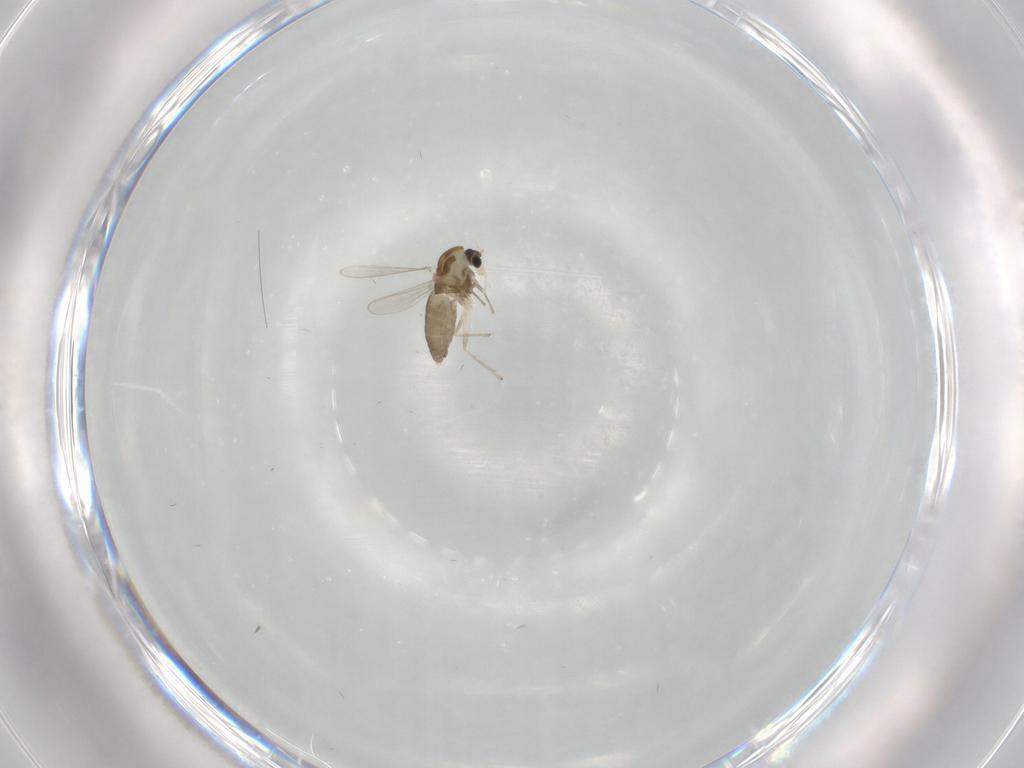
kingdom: Animalia
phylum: Arthropoda
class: Insecta
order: Diptera
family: Chironomidae
